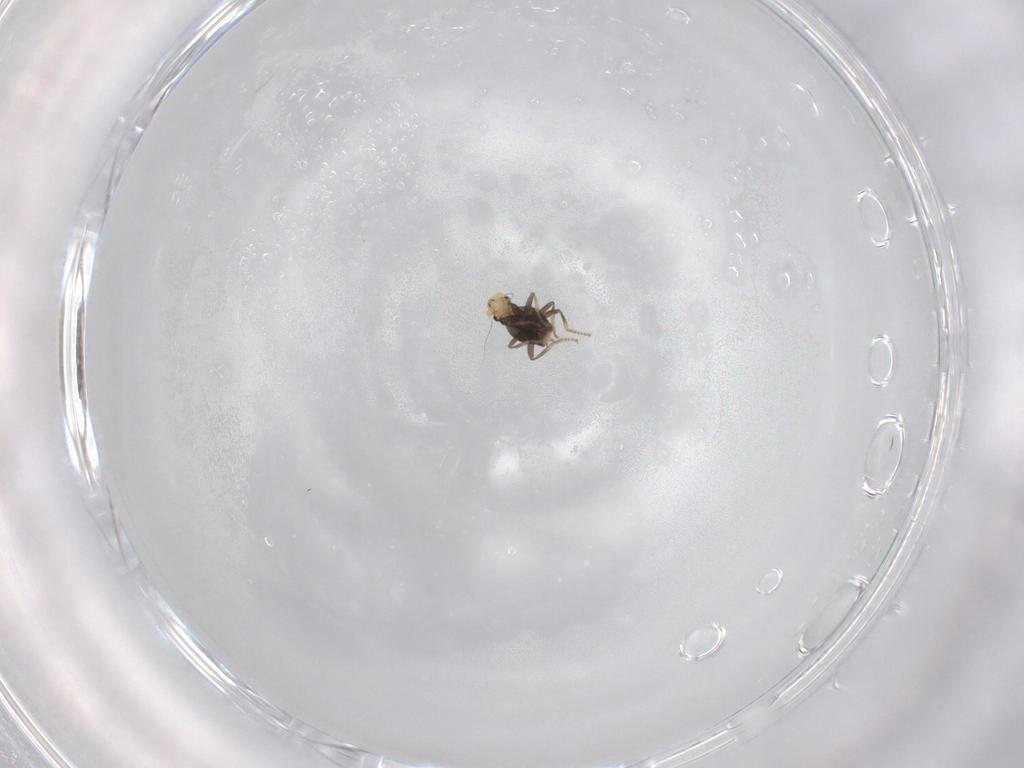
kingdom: Animalia
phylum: Arthropoda
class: Insecta
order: Diptera
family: Phoridae
